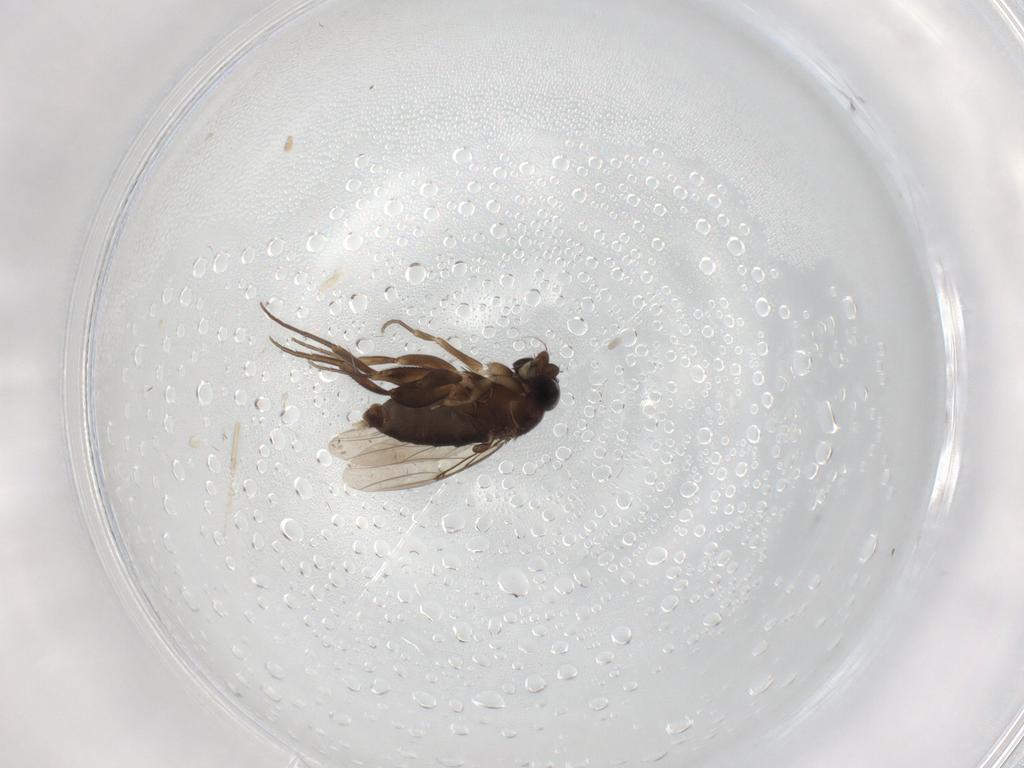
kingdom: Animalia
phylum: Arthropoda
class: Insecta
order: Diptera
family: Phoridae
